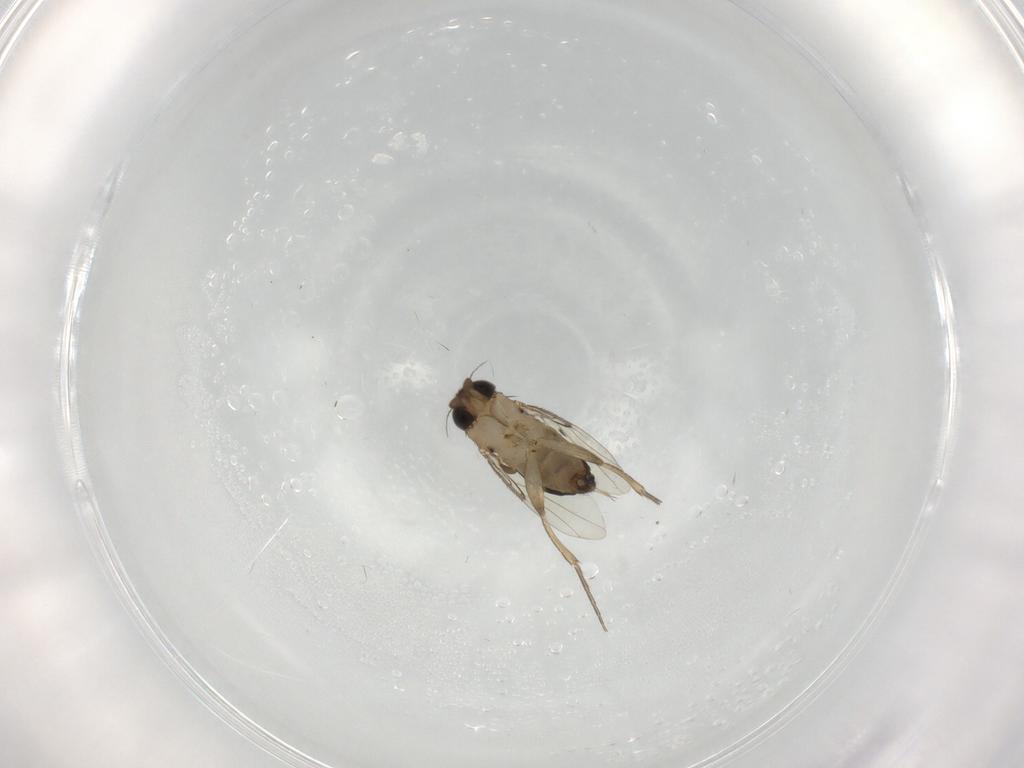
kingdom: Animalia
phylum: Arthropoda
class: Insecta
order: Diptera
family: Phoridae
